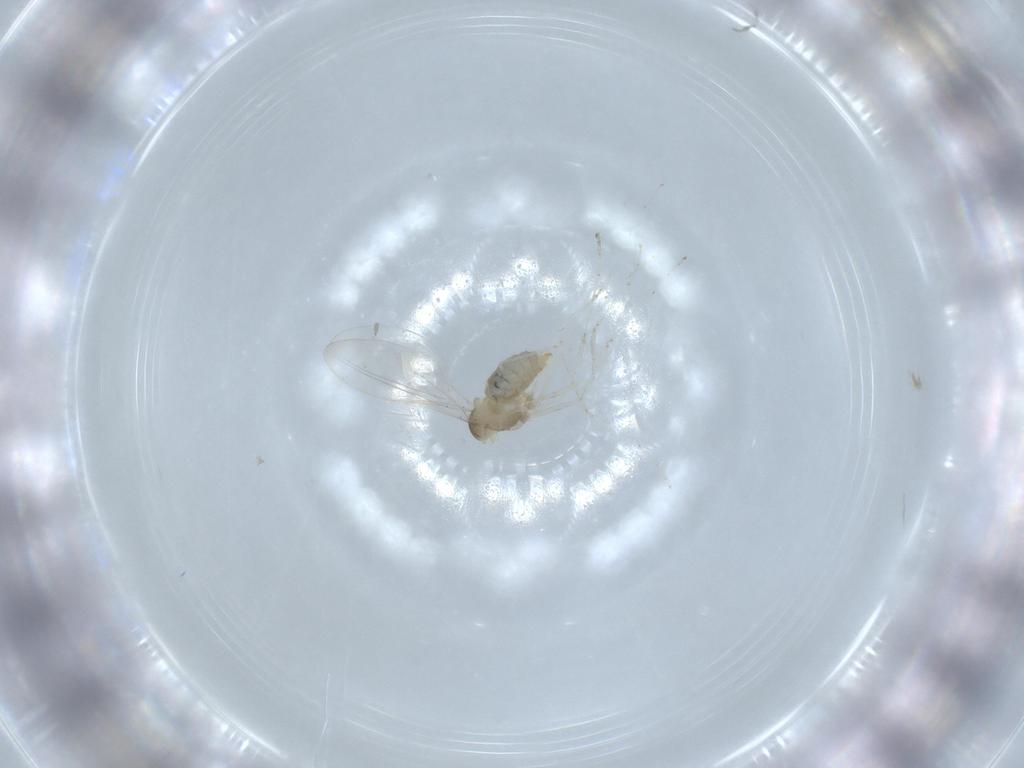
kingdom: Animalia
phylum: Arthropoda
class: Insecta
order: Diptera
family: Cecidomyiidae
